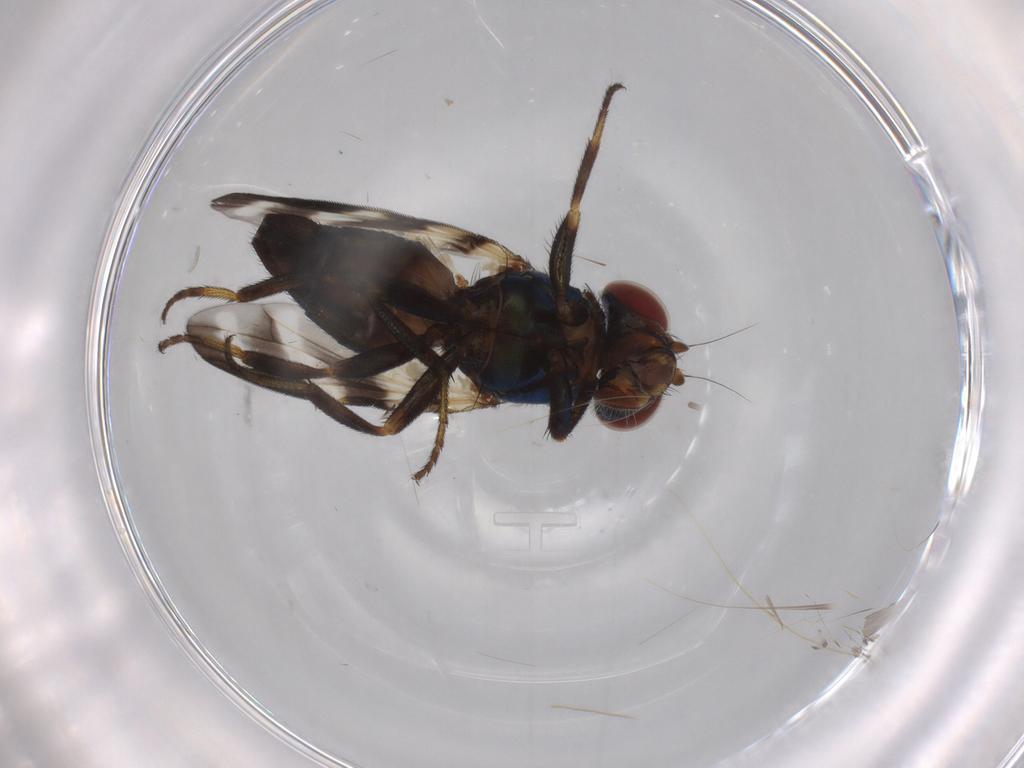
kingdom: Animalia
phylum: Arthropoda
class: Insecta
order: Diptera
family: Ulidiidae
